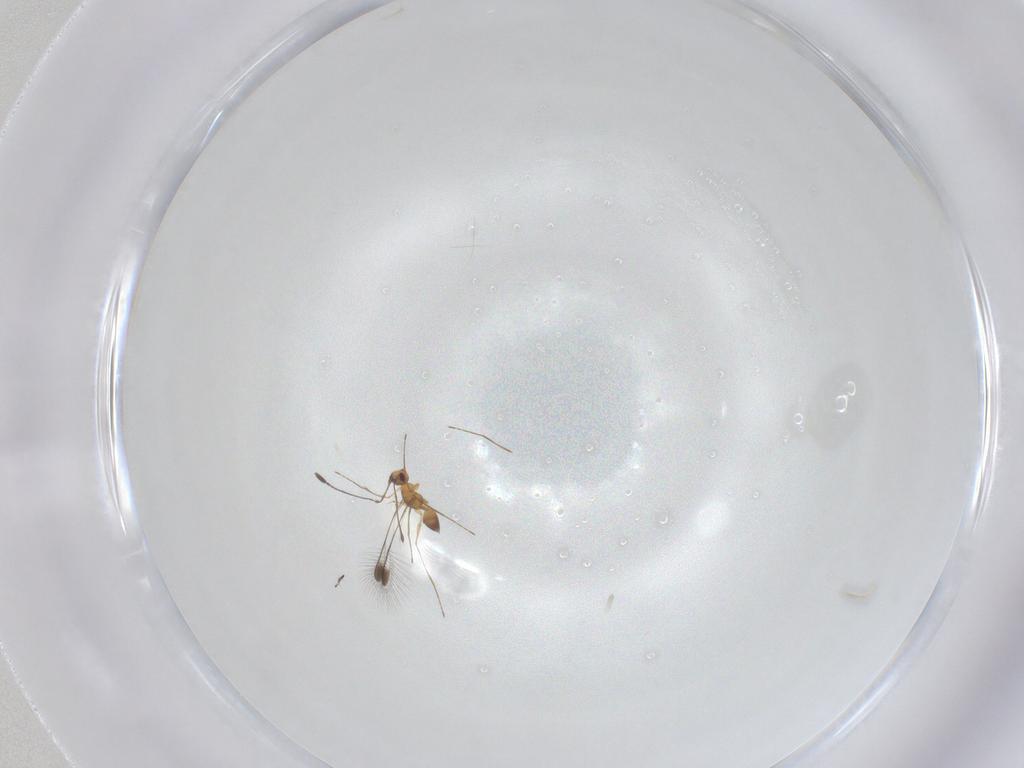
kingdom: Animalia
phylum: Arthropoda
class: Insecta
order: Hymenoptera
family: Mymaridae
